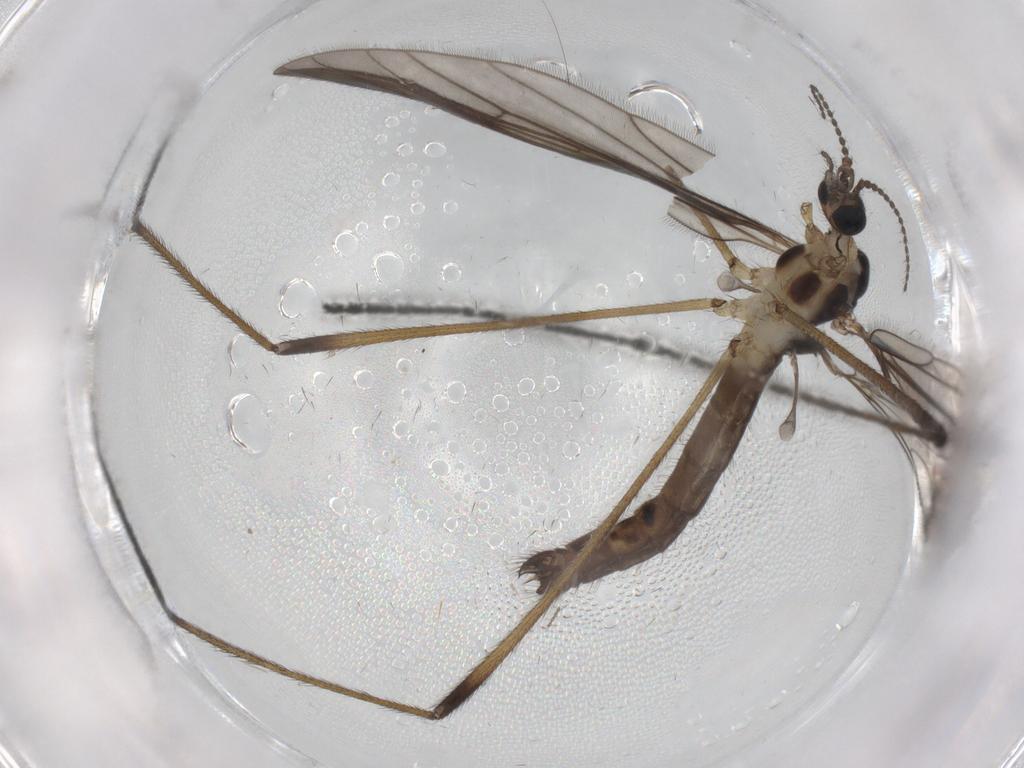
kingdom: Animalia
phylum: Arthropoda
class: Insecta
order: Diptera
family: Limoniidae
